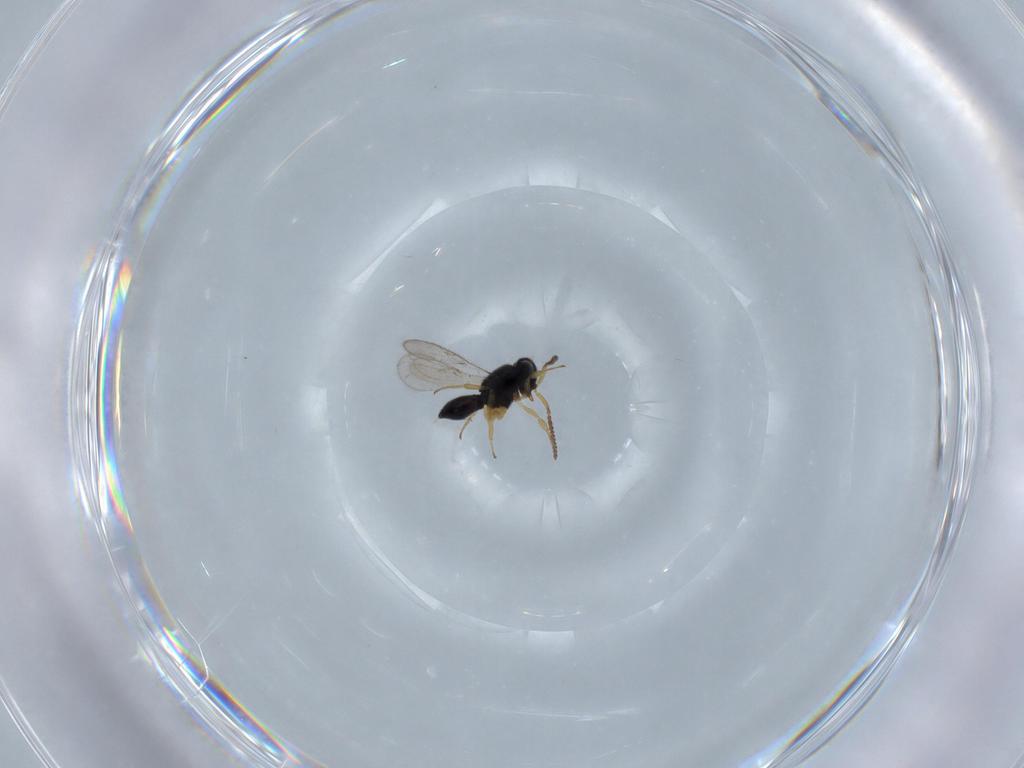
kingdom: Animalia
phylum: Arthropoda
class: Insecta
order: Hymenoptera
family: Scelionidae
